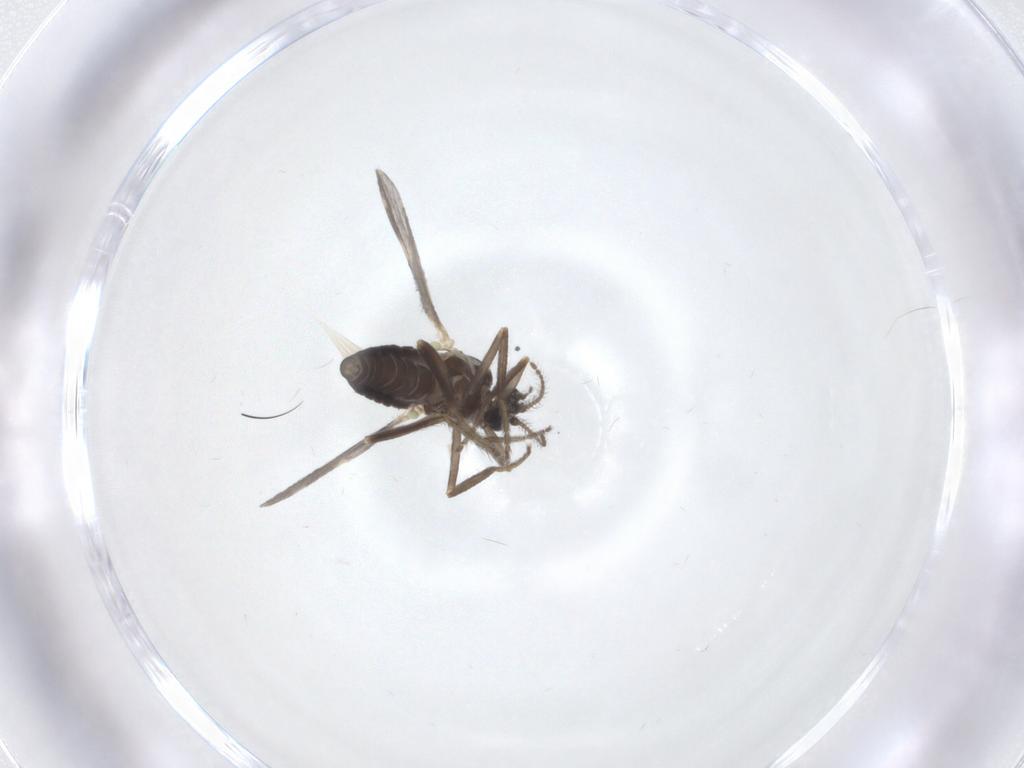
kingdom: Animalia
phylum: Arthropoda
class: Insecta
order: Diptera
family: Ceratopogonidae
